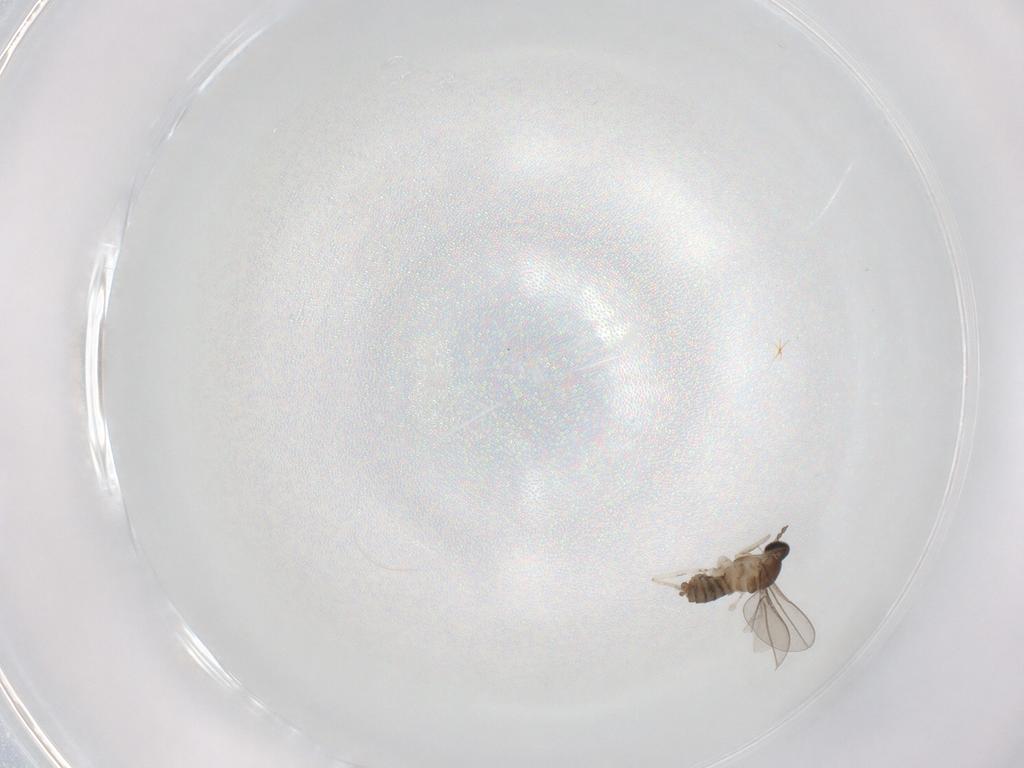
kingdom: Animalia
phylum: Arthropoda
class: Insecta
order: Diptera
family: Cecidomyiidae
